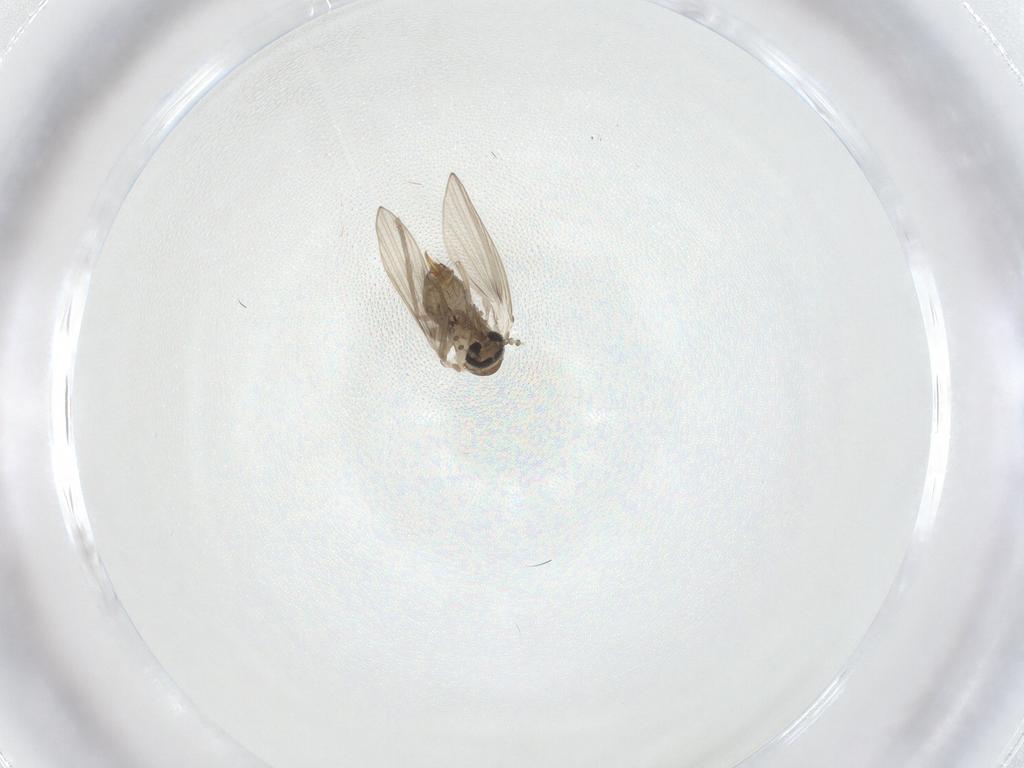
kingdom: Animalia
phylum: Arthropoda
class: Insecta
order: Diptera
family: Psychodidae
